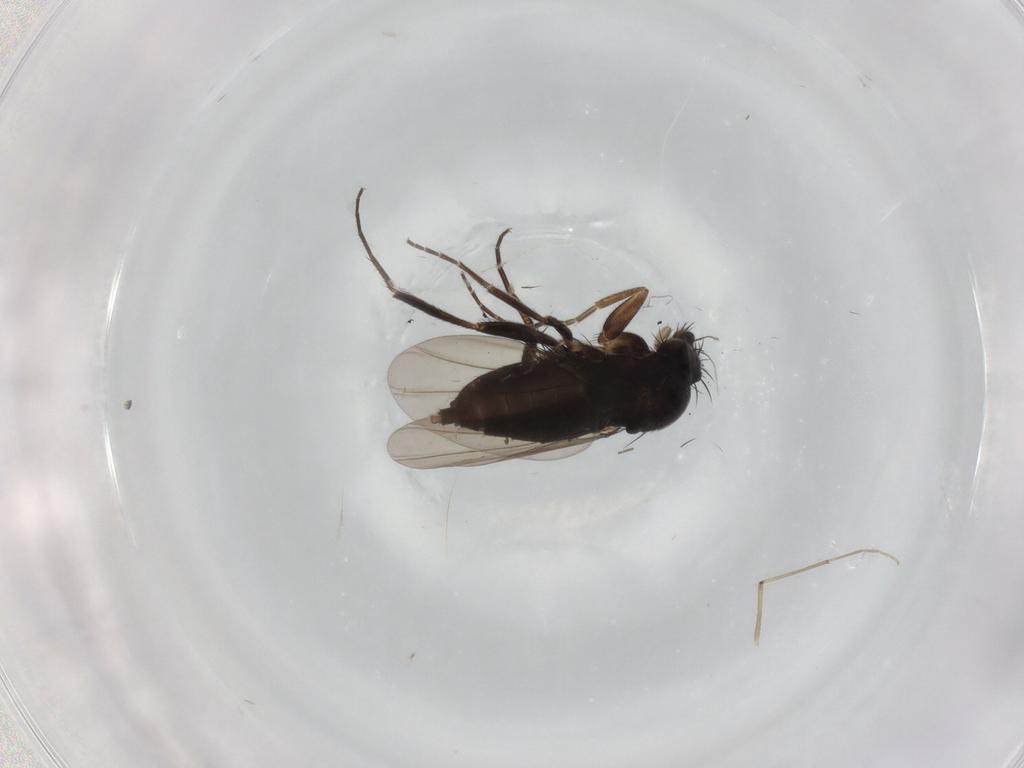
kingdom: Animalia
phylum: Arthropoda
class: Insecta
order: Diptera
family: Phoridae
